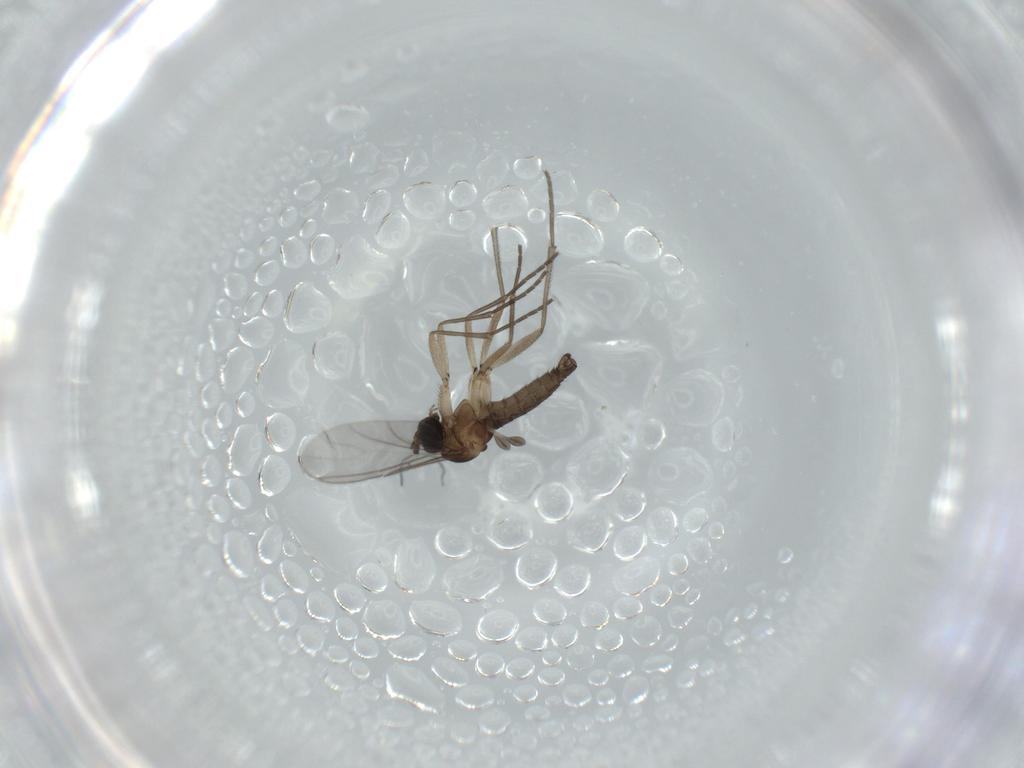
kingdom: Animalia
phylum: Arthropoda
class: Insecta
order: Diptera
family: Sciaridae
